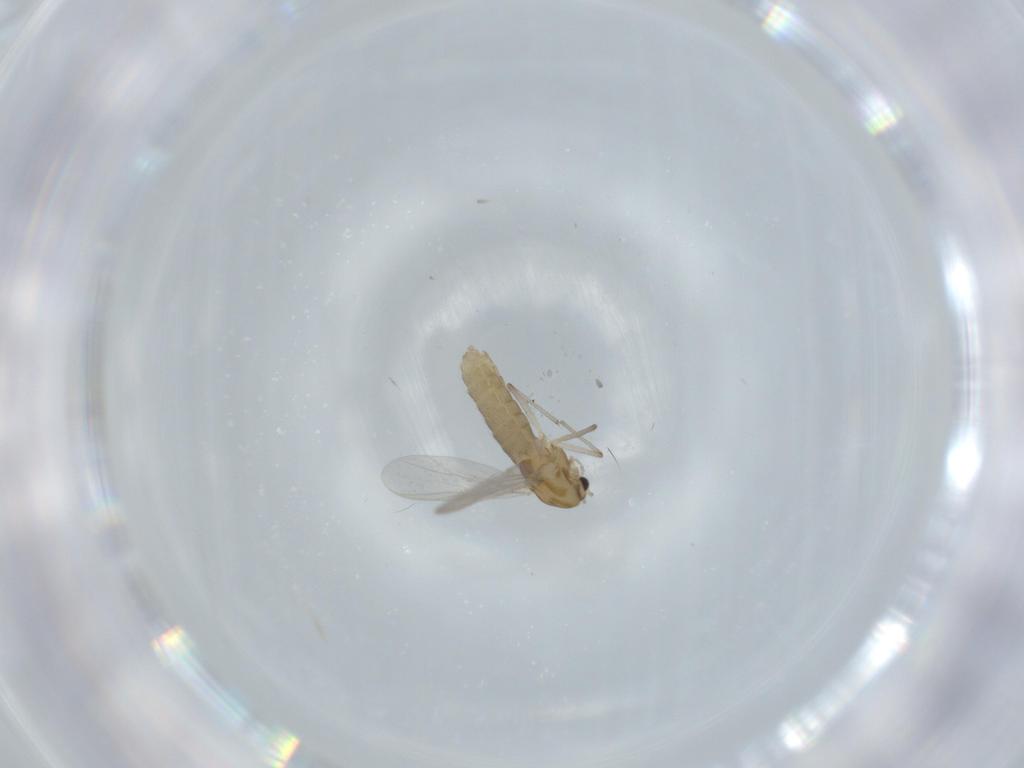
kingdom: Animalia
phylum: Arthropoda
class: Insecta
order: Diptera
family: Chironomidae
